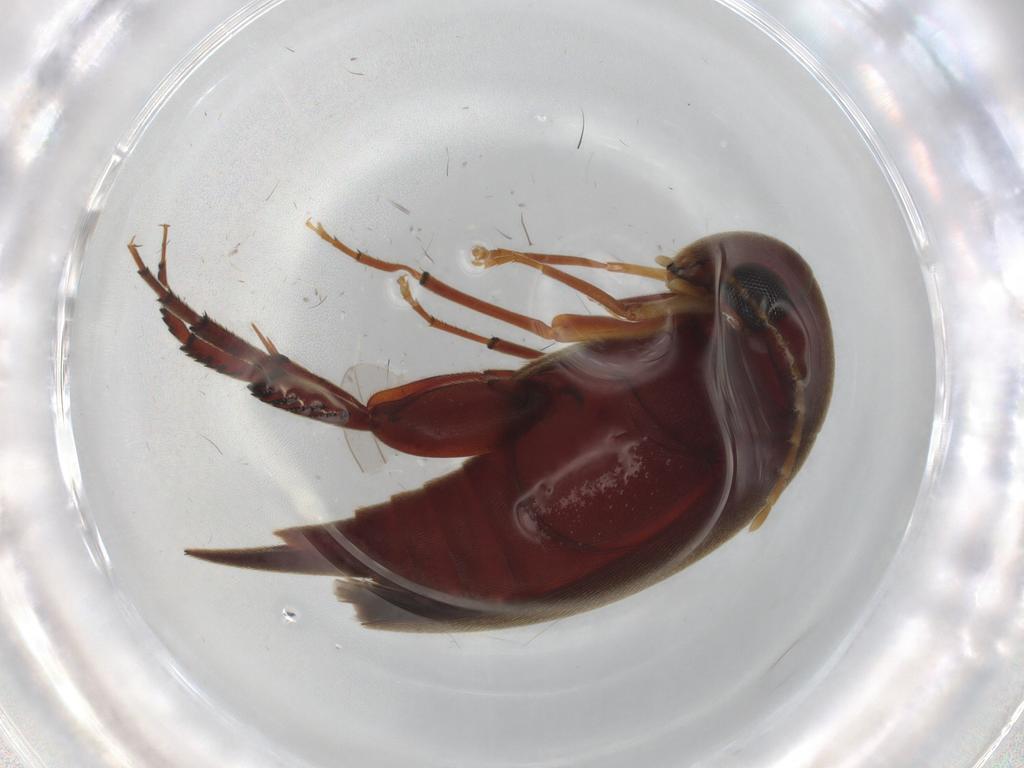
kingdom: Animalia
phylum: Arthropoda
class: Insecta
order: Coleoptera
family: Mordellidae
